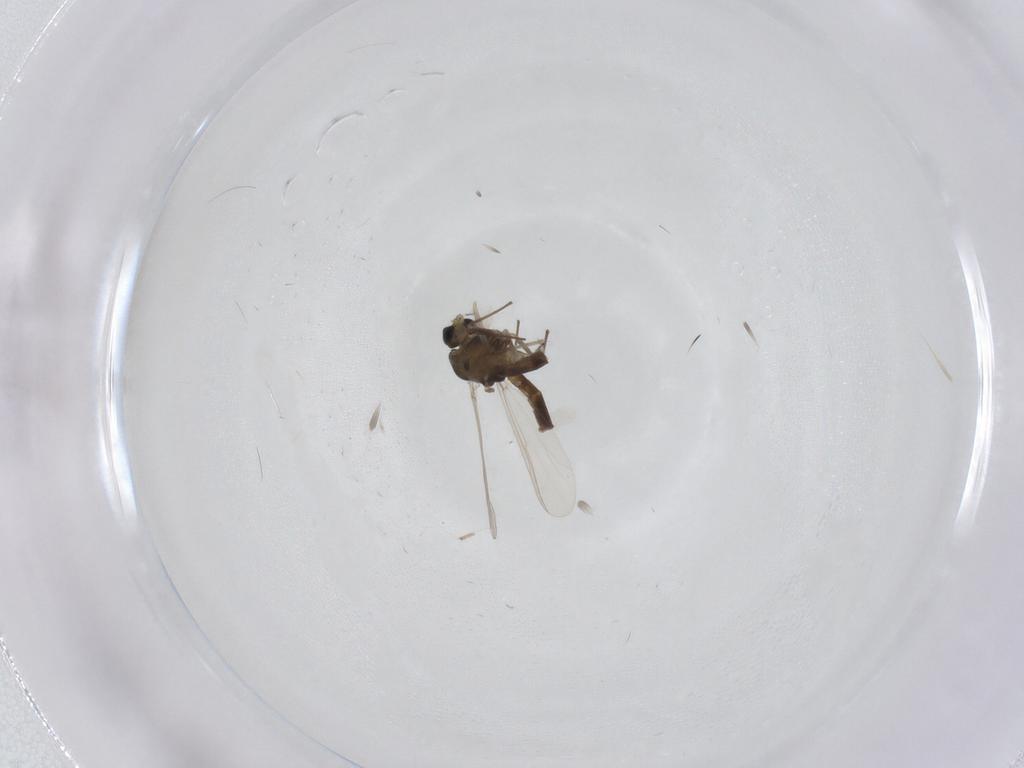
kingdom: Animalia
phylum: Arthropoda
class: Insecta
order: Diptera
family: Chironomidae
